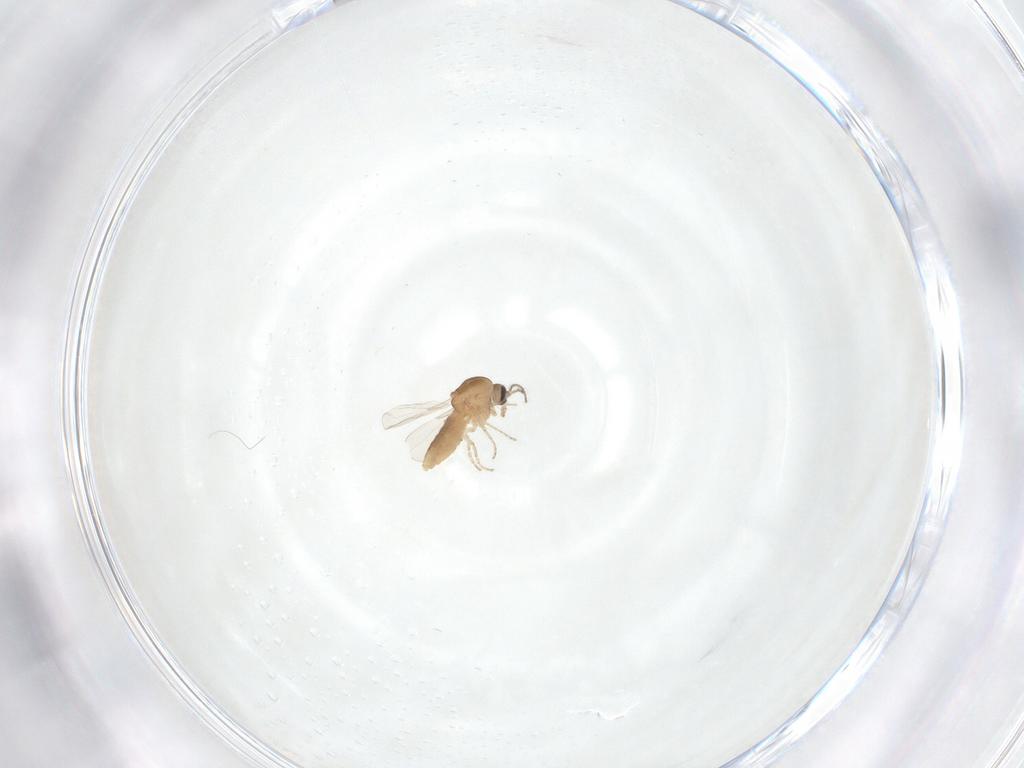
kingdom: Animalia
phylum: Arthropoda
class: Insecta
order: Diptera
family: Ceratopogonidae
